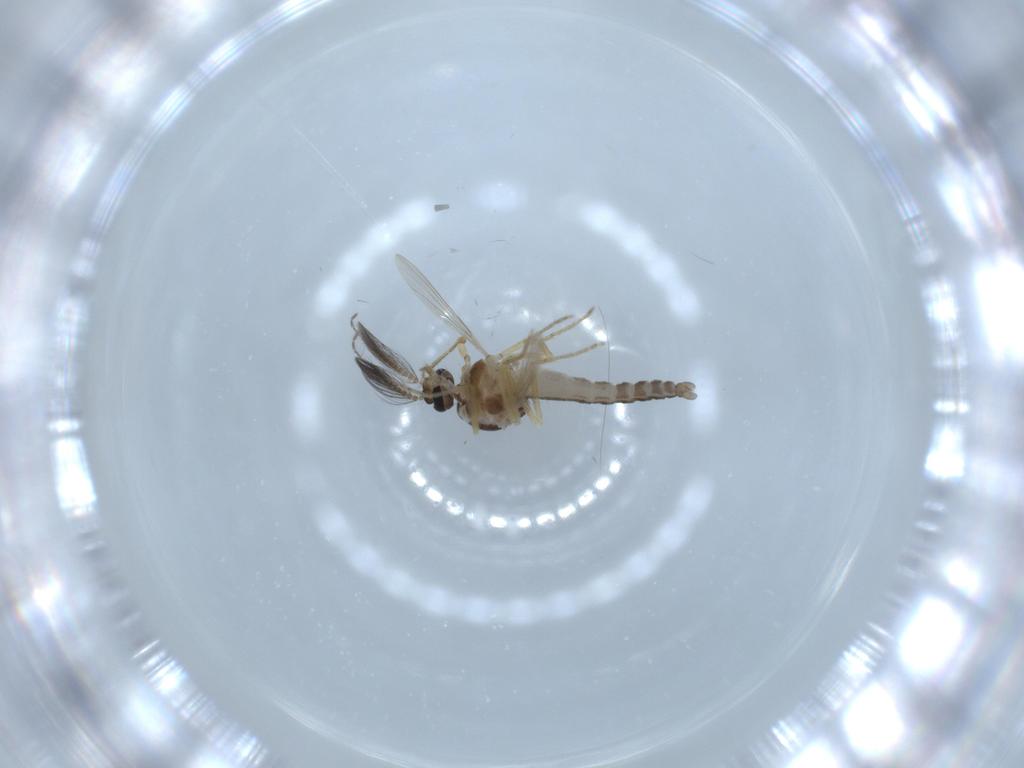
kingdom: Animalia
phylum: Arthropoda
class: Insecta
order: Diptera
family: Ceratopogonidae
